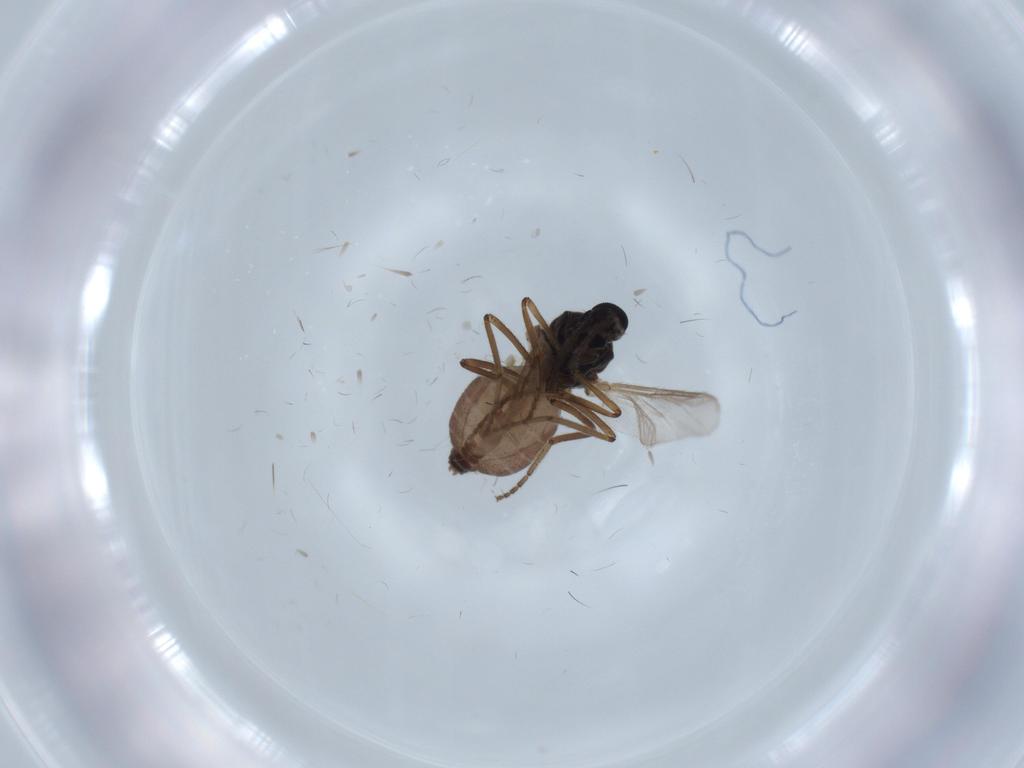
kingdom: Animalia
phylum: Arthropoda
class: Insecta
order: Diptera
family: Ceratopogonidae
